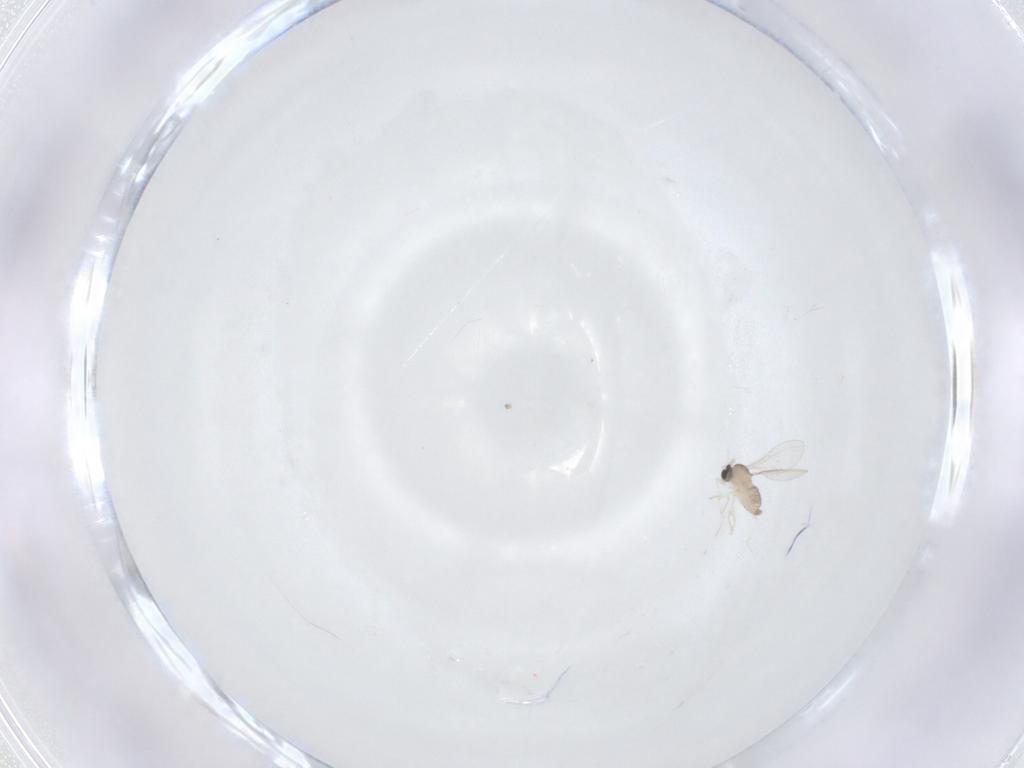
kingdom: Animalia
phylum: Arthropoda
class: Insecta
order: Diptera
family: Cecidomyiidae
